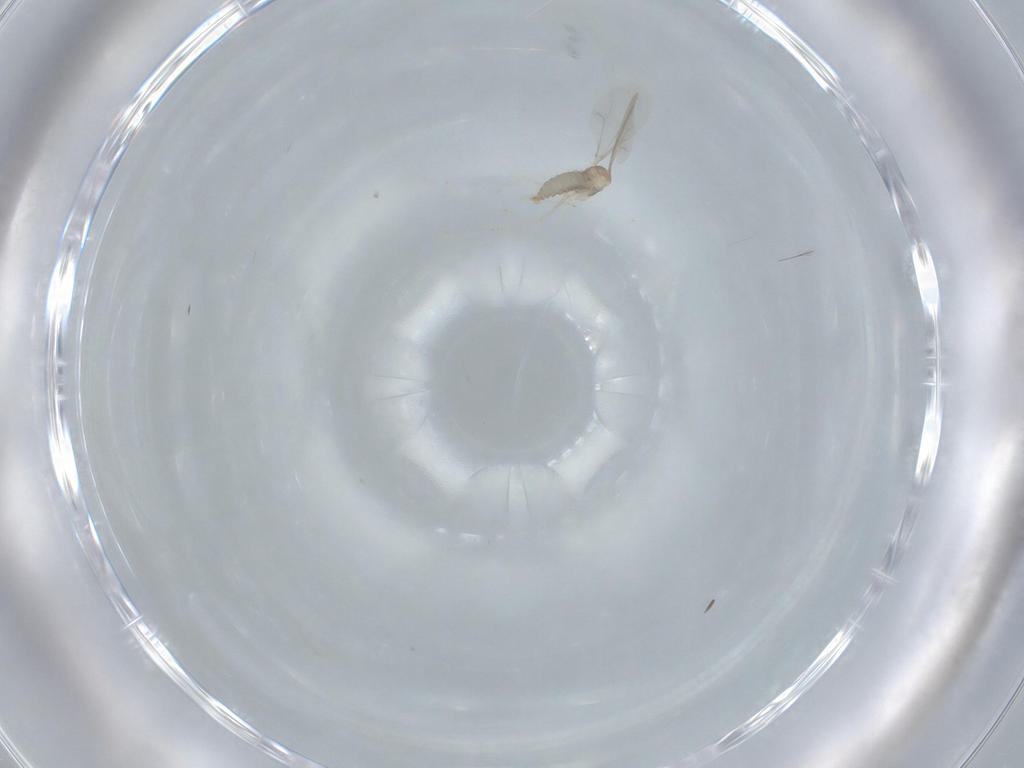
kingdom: Animalia
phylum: Arthropoda
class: Insecta
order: Diptera
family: Cecidomyiidae
